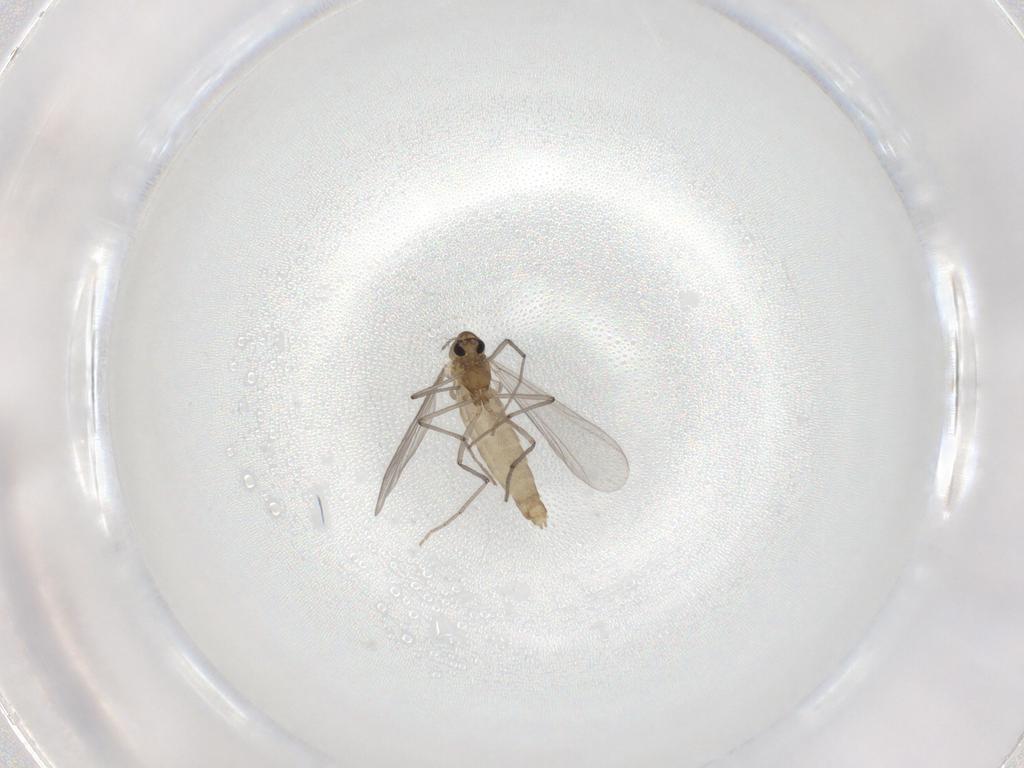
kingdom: Animalia
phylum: Arthropoda
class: Insecta
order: Diptera
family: Chironomidae
